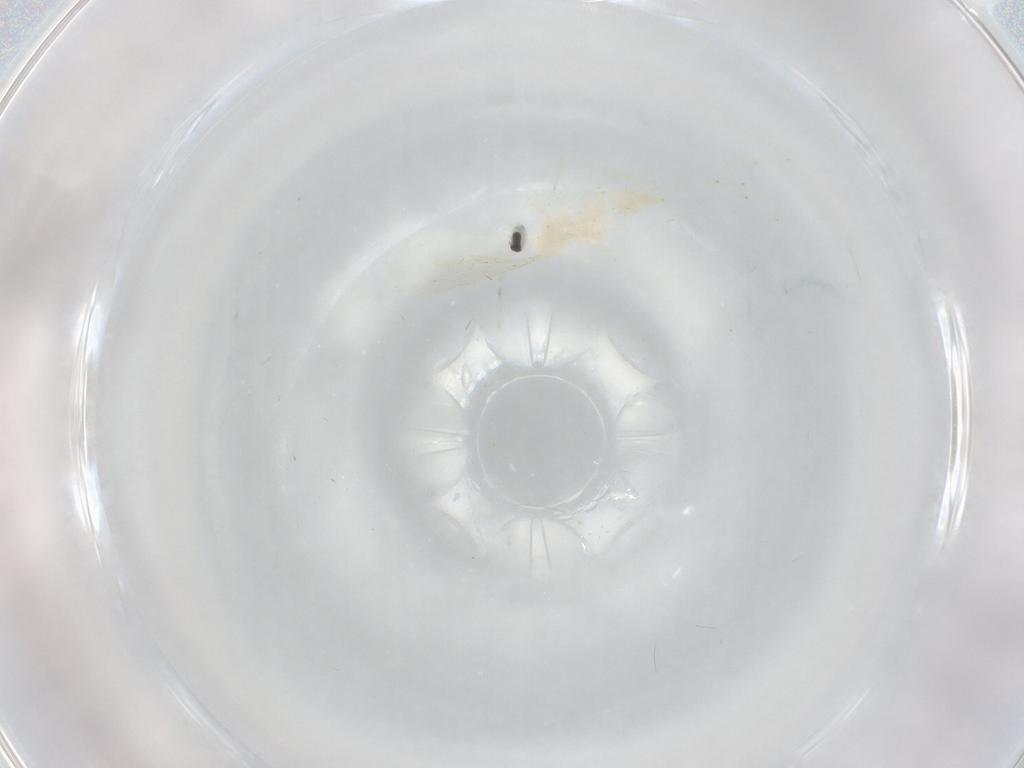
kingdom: Animalia
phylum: Arthropoda
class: Insecta
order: Diptera
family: Cecidomyiidae
